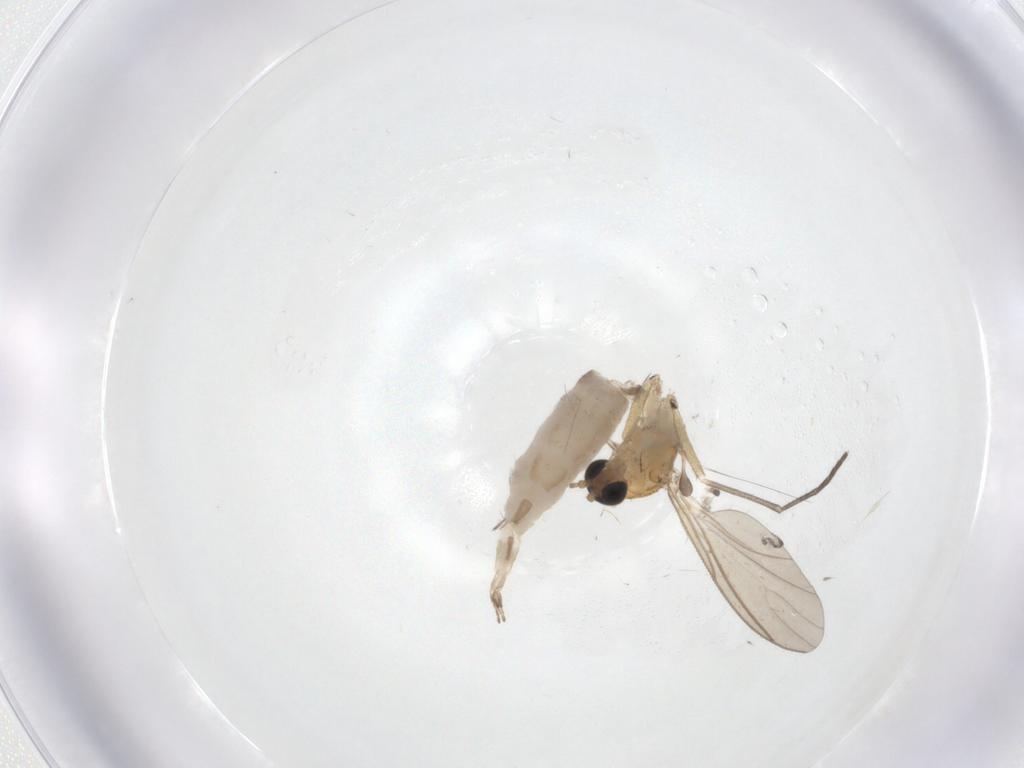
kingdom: Animalia
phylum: Arthropoda
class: Insecta
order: Diptera
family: Sciaridae
